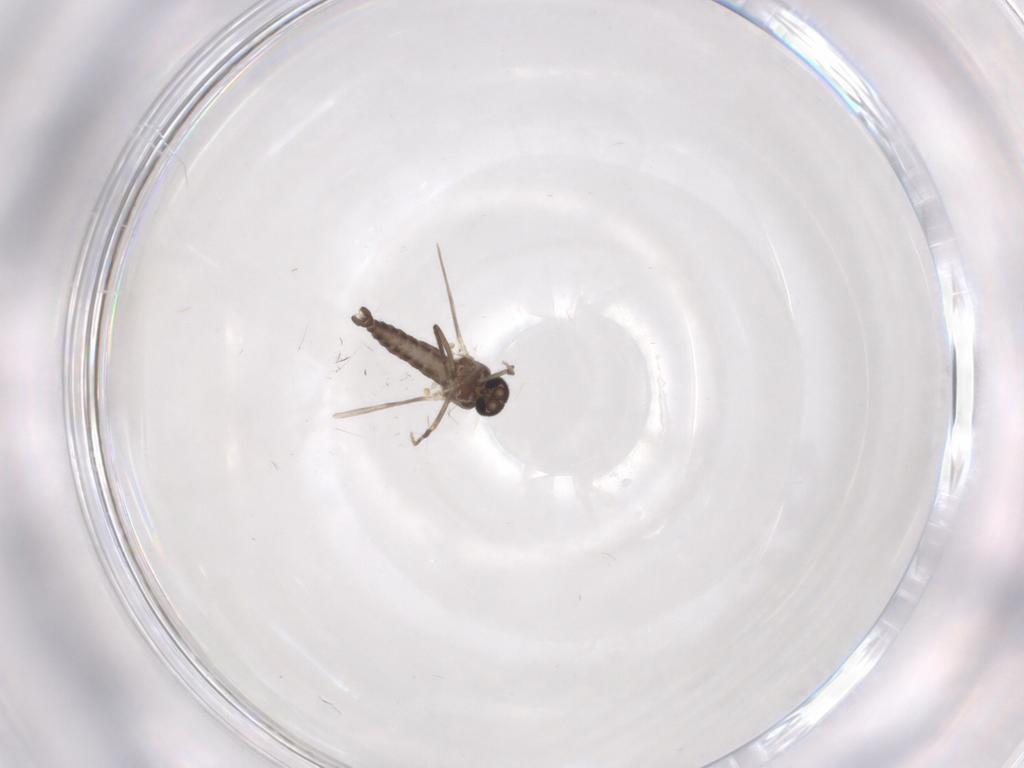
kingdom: Animalia
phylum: Arthropoda
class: Insecta
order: Diptera
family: Ceratopogonidae
